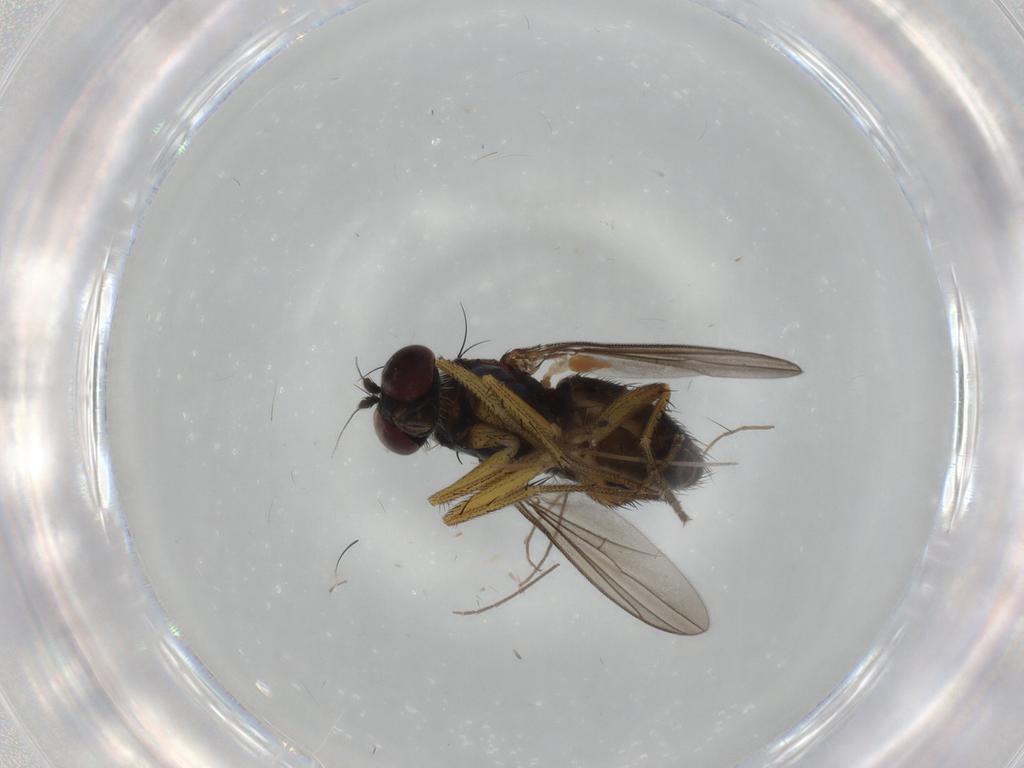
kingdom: Animalia
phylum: Arthropoda
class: Insecta
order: Diptera
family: Dolichopodidae
